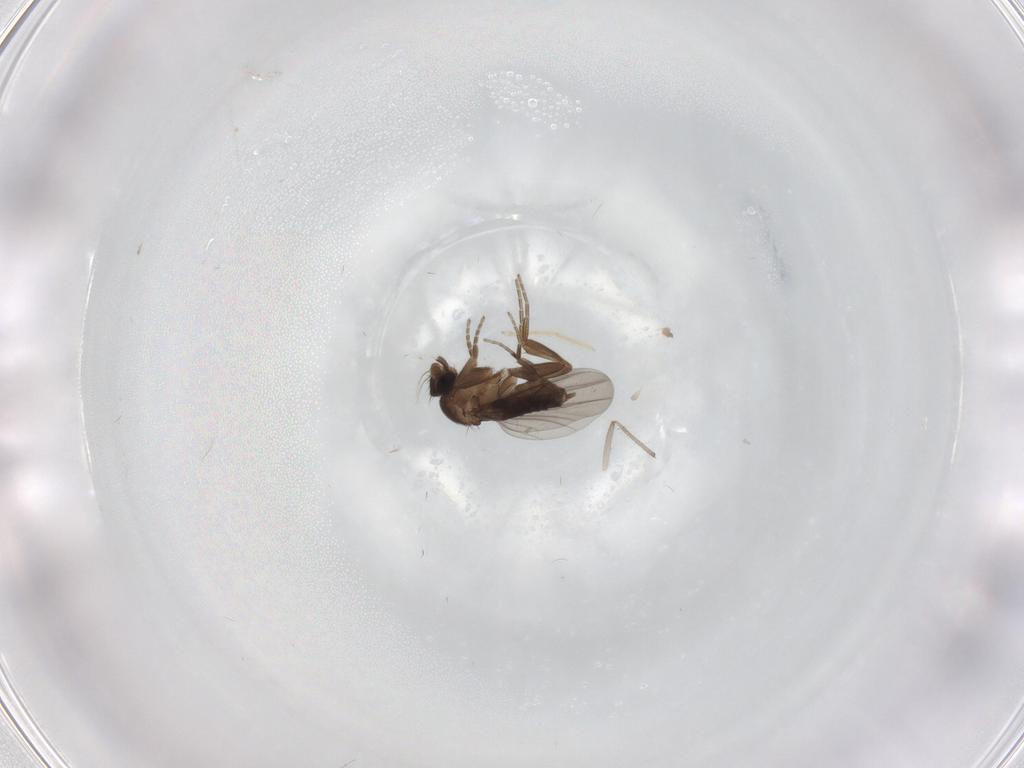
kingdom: Animalia
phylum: Arthropoda
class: Insecta
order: Diptera
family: Chironomidae
